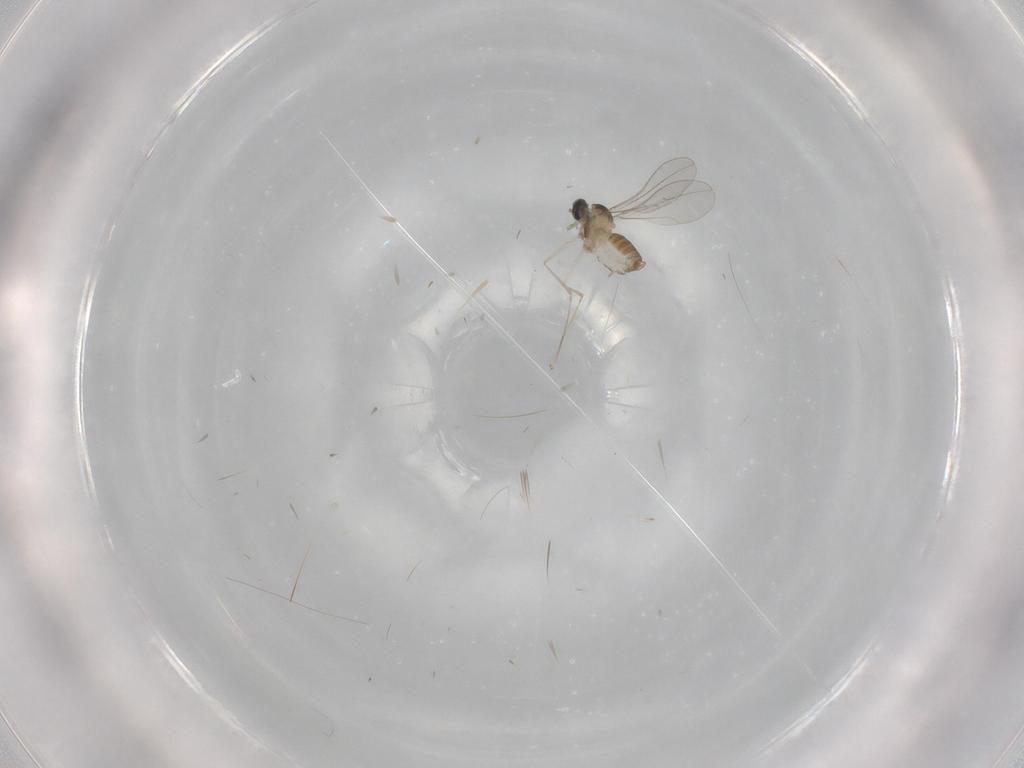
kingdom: Animalia
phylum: Arthropoda
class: Insecta
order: Diptera
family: Cecidomyiidae
